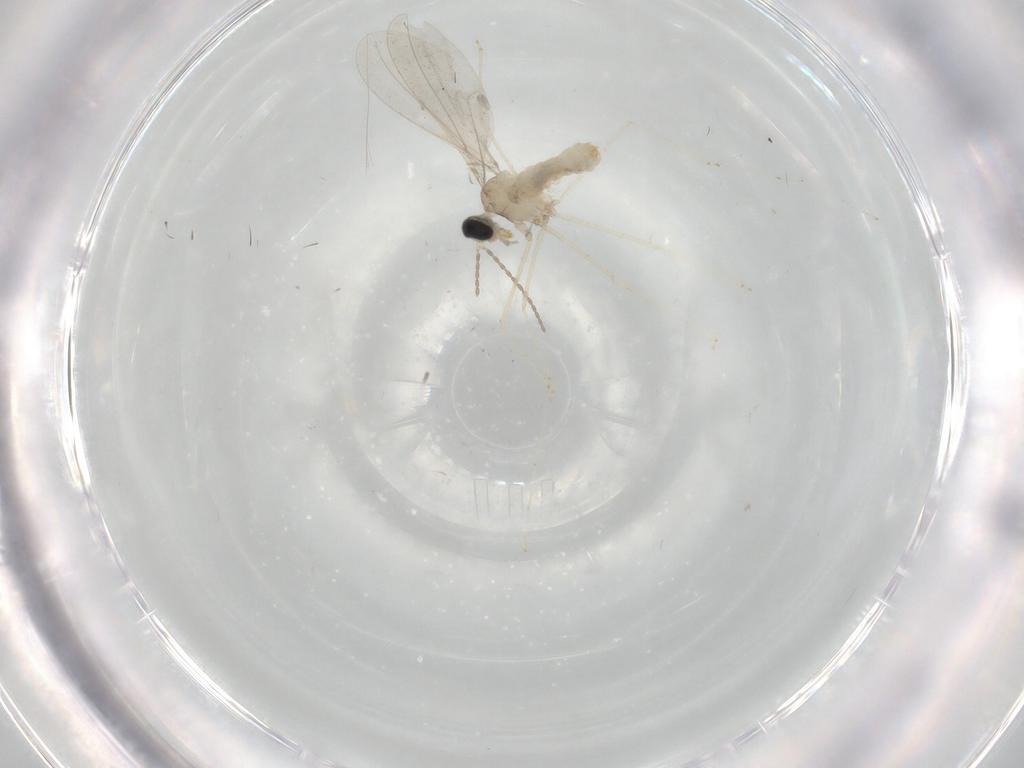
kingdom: Animalia
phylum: Arthropoda
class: Insecta
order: Diptera
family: Cecidomyiidae
